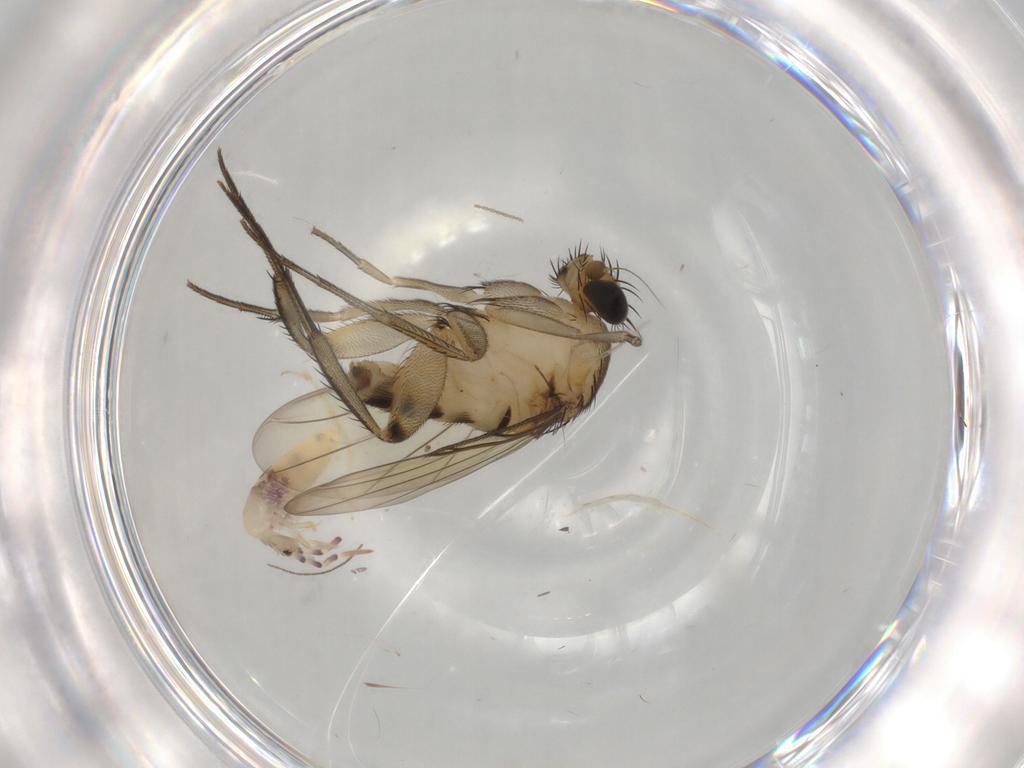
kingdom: Animalia
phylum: Arthropoda
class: Insecta
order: Diptera
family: Phoridae
